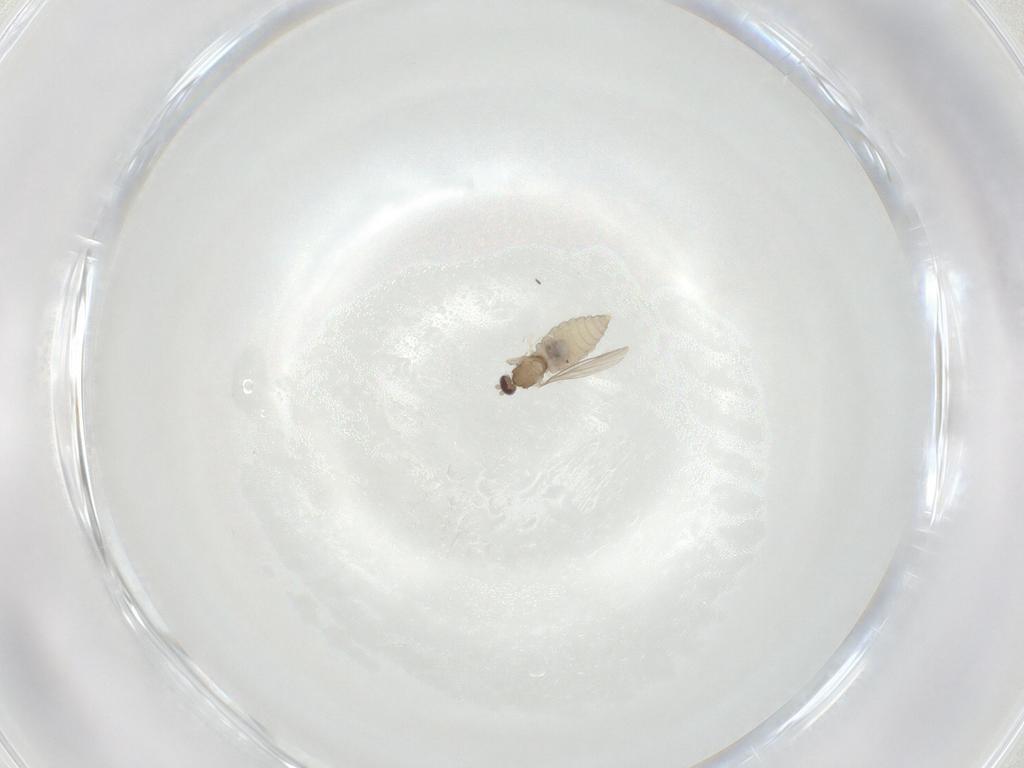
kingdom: Animalia
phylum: Arthropoda
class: Insecta
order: Diptera
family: Cecidomyiidae
